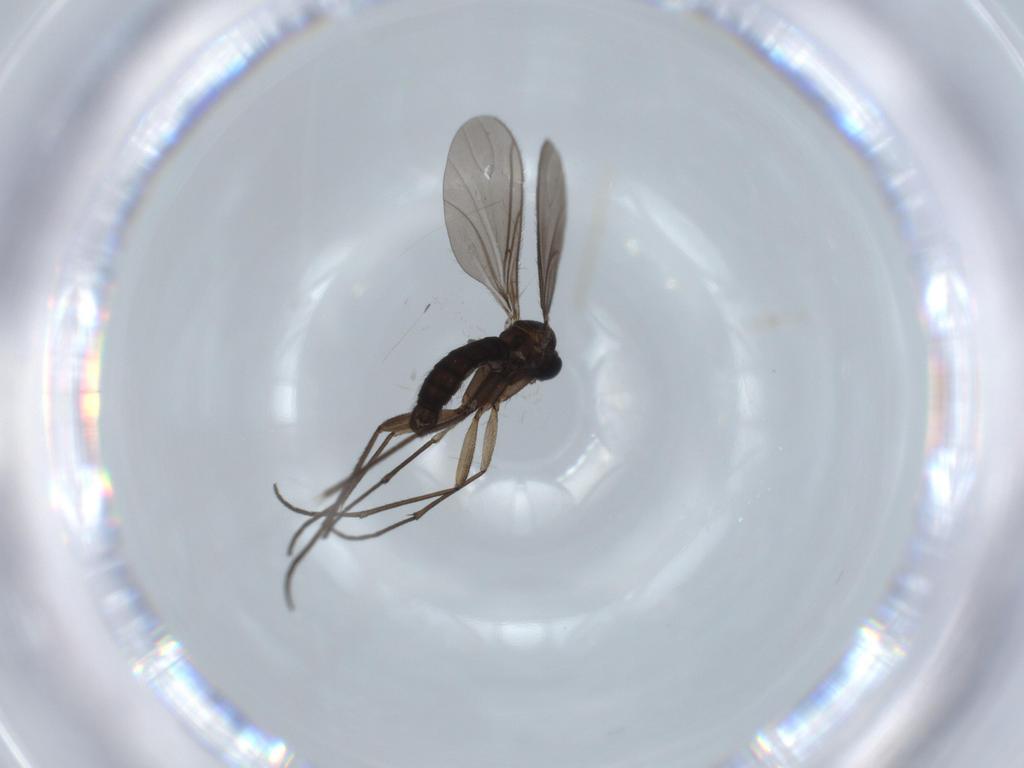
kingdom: Animalia
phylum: Arthropoda
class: Insecta
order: Diptera
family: Sciaridae
